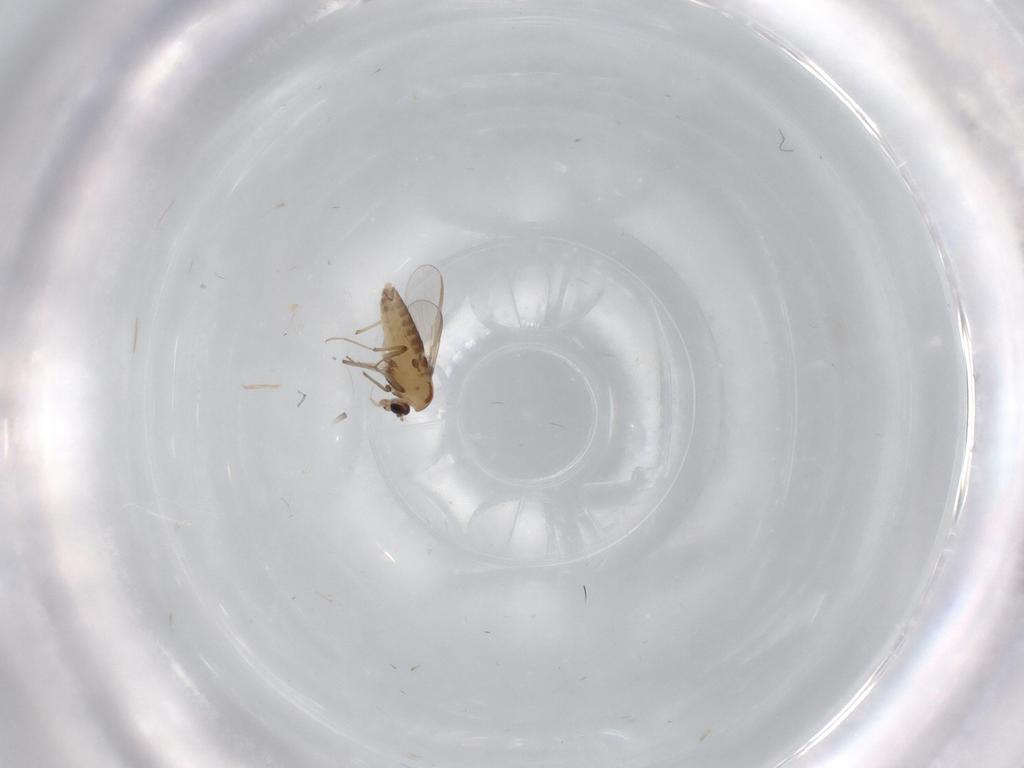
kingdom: Animalia
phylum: Arthropoda
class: Insecta
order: Diptera
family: Chironomidae
